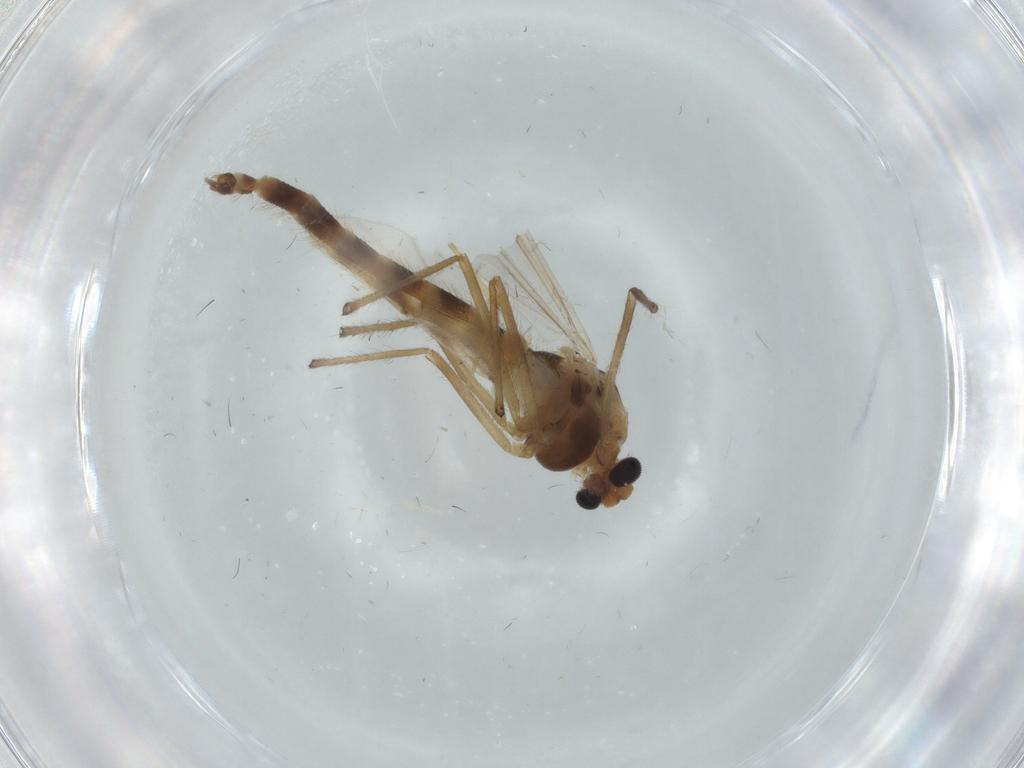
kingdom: Animalia
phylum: Arthropoda
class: Insecta
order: Diptera
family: Chironomidae
